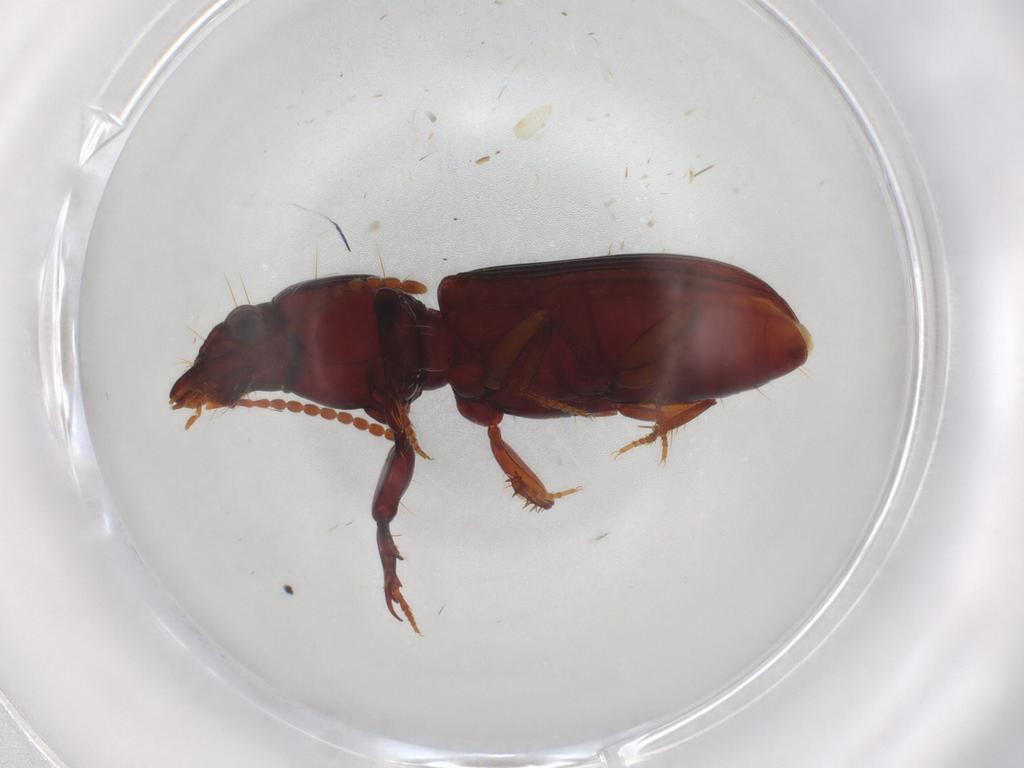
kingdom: Animalia
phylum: Arthropoda
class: Insecta
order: Coleoptera
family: Carabidae
